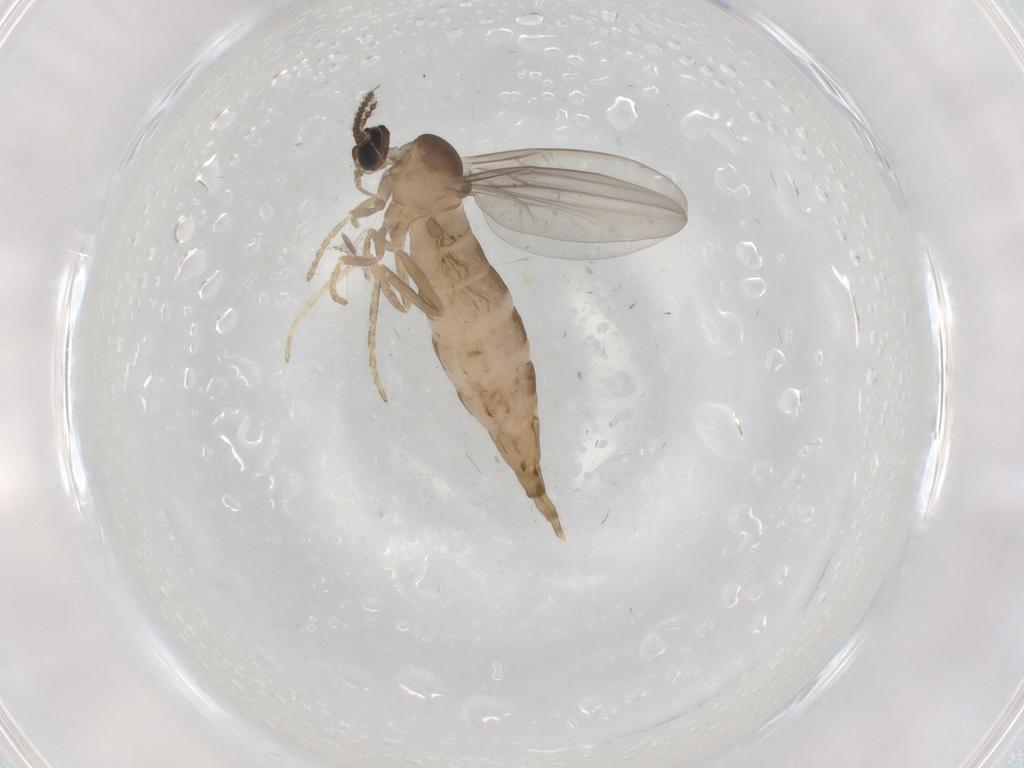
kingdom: Animalia
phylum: Arthropoda
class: Insecta
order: Diptera
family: Cecidomyiidae
